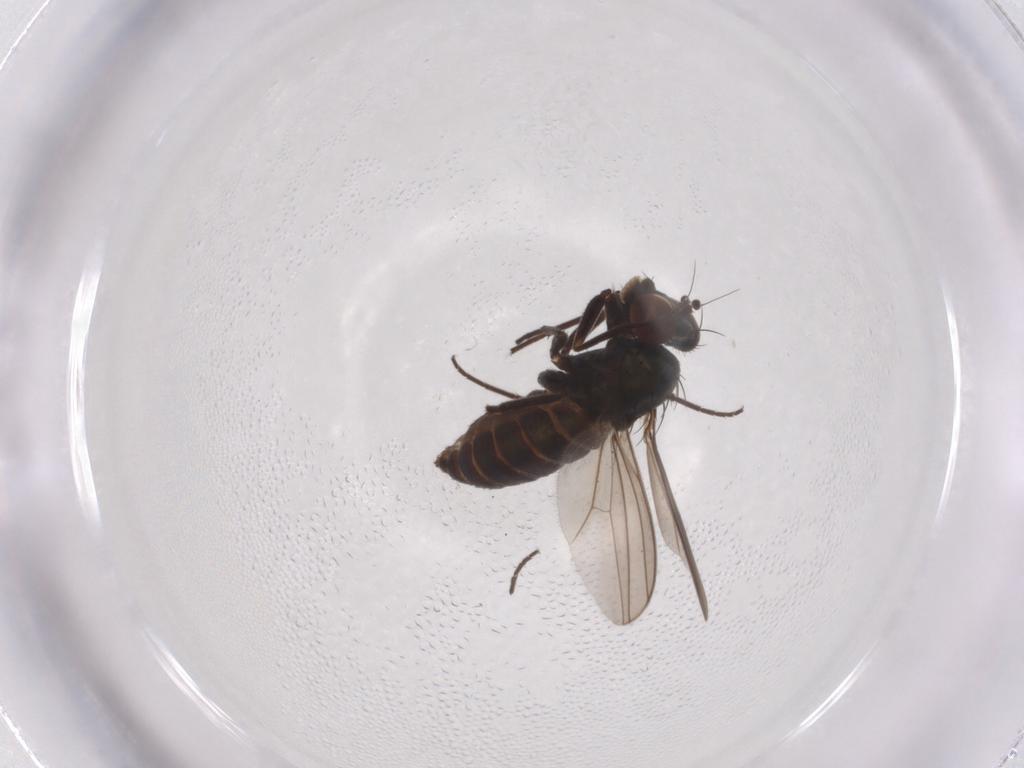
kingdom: Animalia
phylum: Arthropoda
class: Insecta
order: Diptera
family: Dolichopodidae
